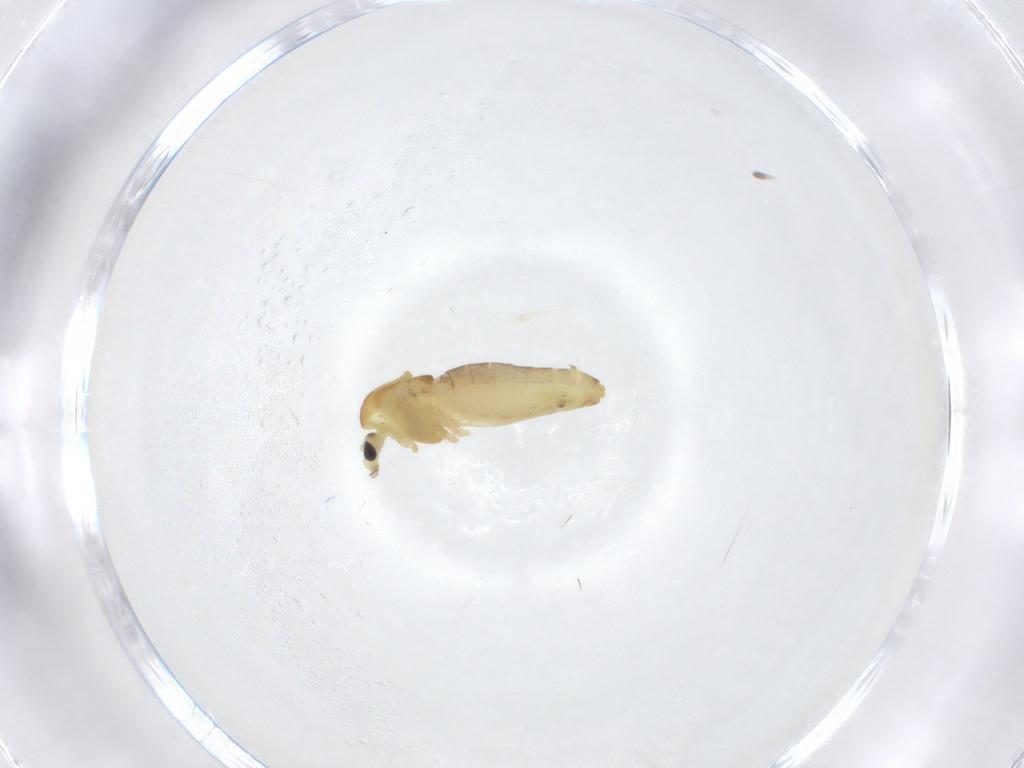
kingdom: Animalia
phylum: Arthropoda
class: Insecta
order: Diptera
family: Chironomidae
